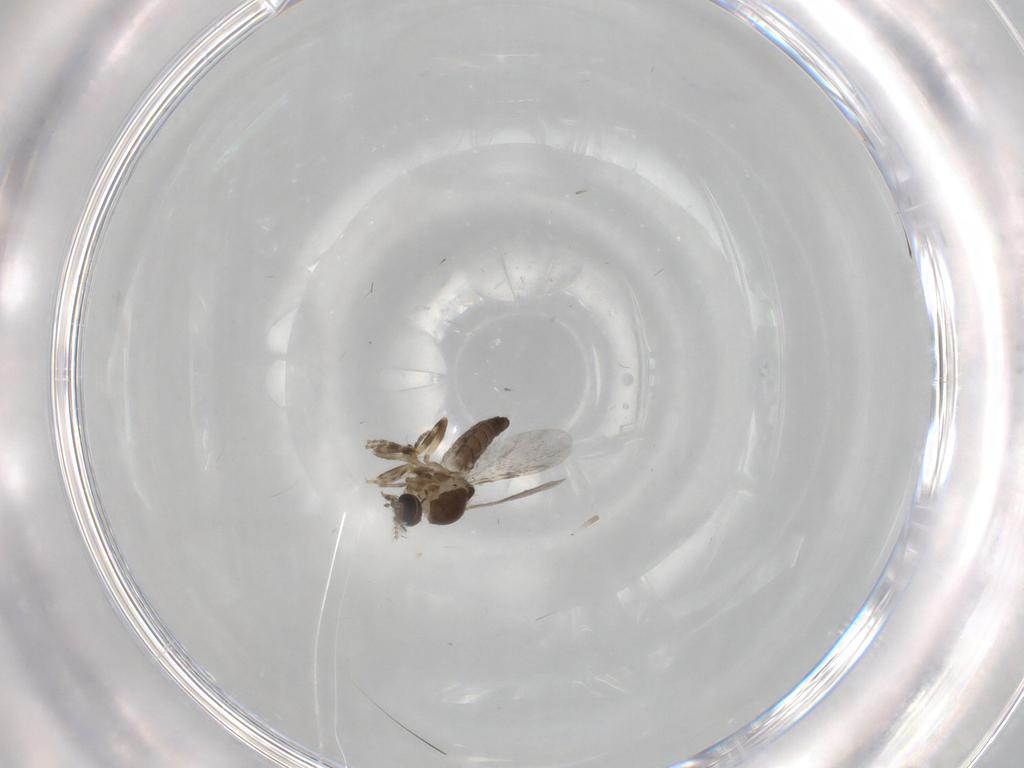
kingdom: Animalia
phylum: Arthropoda
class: Insecta
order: Diptera
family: Ceratopogonidae
